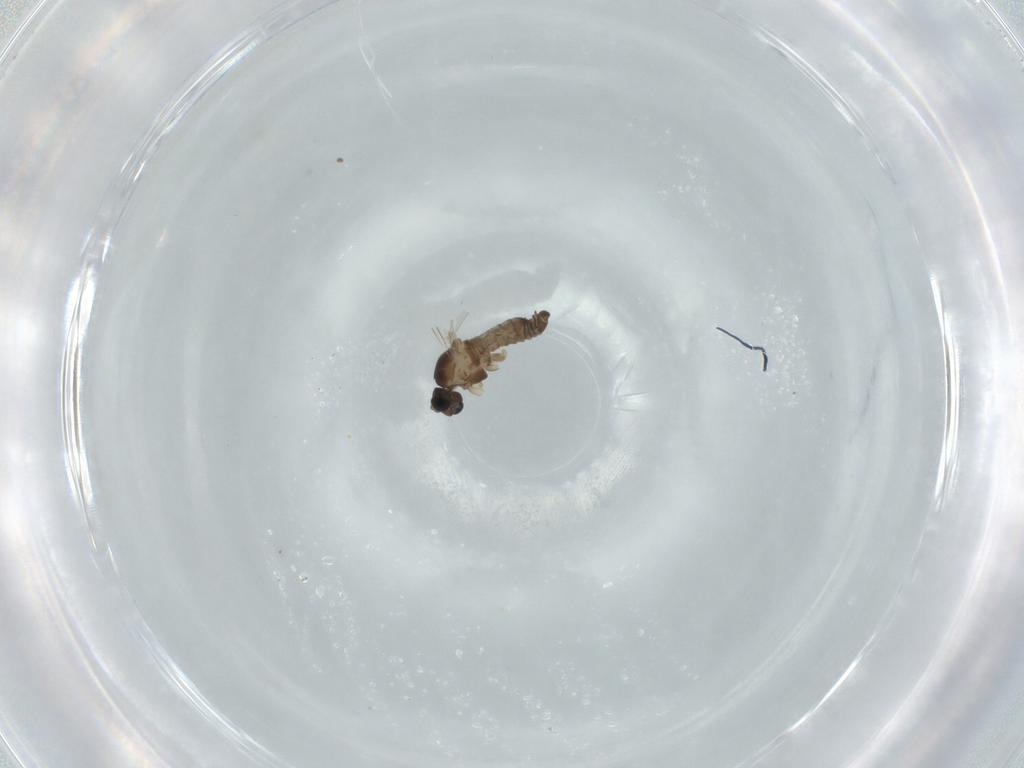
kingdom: Animalia
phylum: Arthropoda
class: Insecta
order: Diptera
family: Cecidomyiidae
